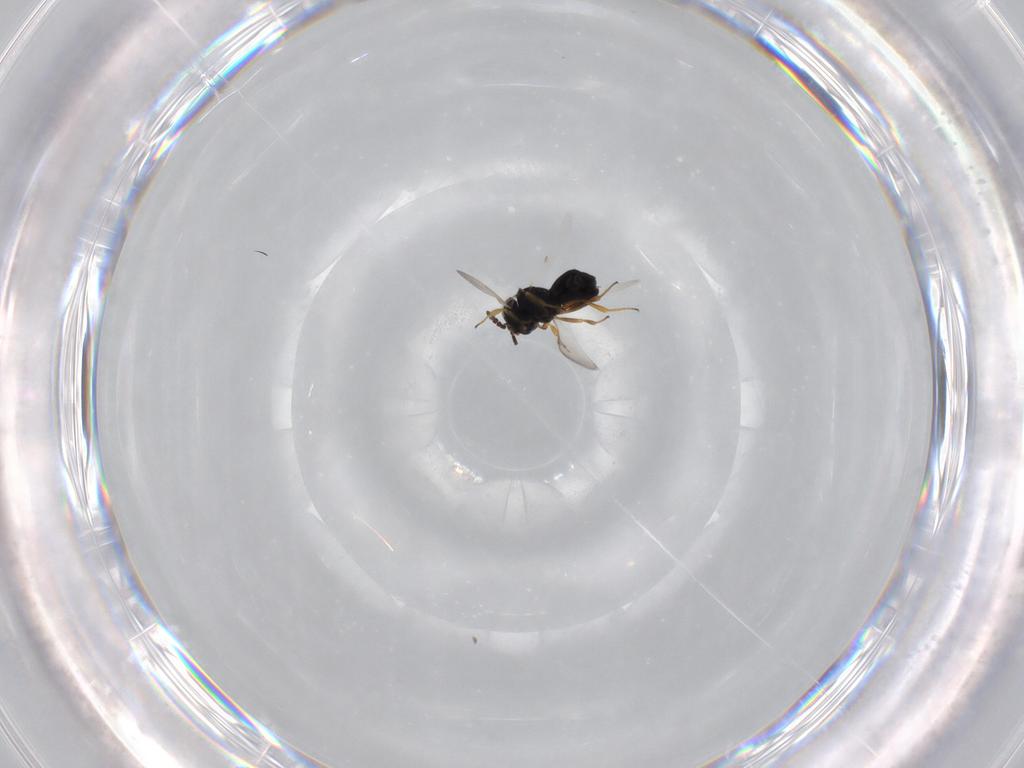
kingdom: Animalia
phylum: Arthropoda
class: Insecta
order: Hymenoptera
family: Scelionidae
